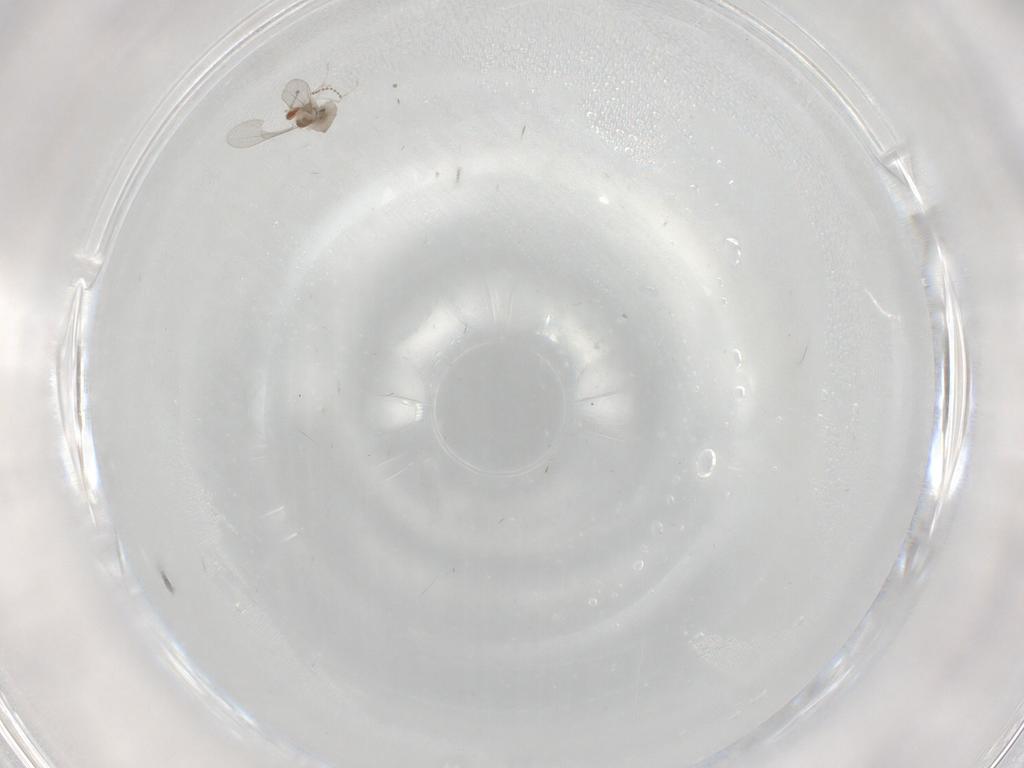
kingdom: Animalia
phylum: Arthropoda
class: Insecta
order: Diptera
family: Cecidomyiidae
